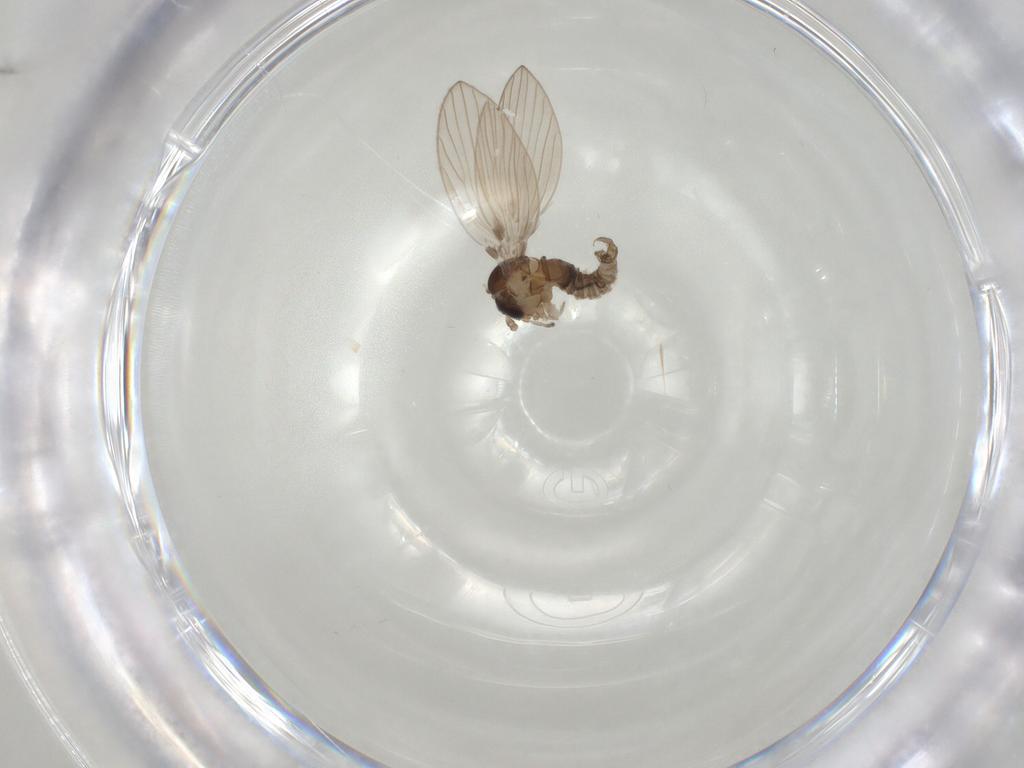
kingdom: Animalia
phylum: Arthropoda
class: Insecta
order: Diptera
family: Psychodidae
